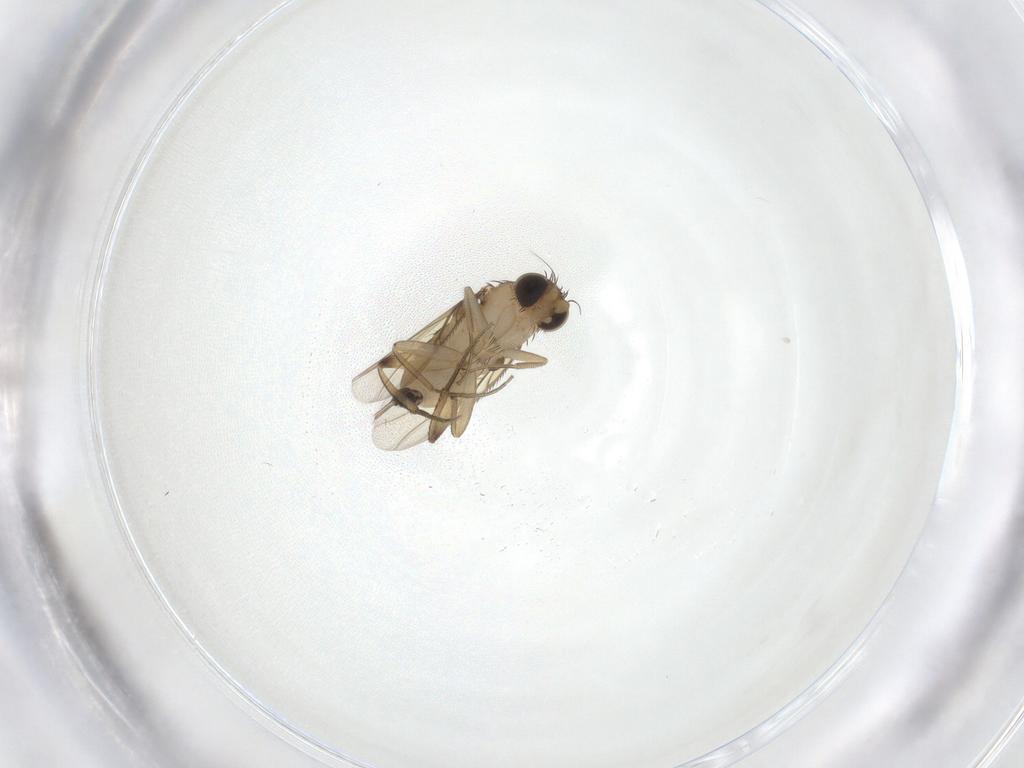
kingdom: Animalia
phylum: Arthropoda
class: Insecta
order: Diptera
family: Phoridae
